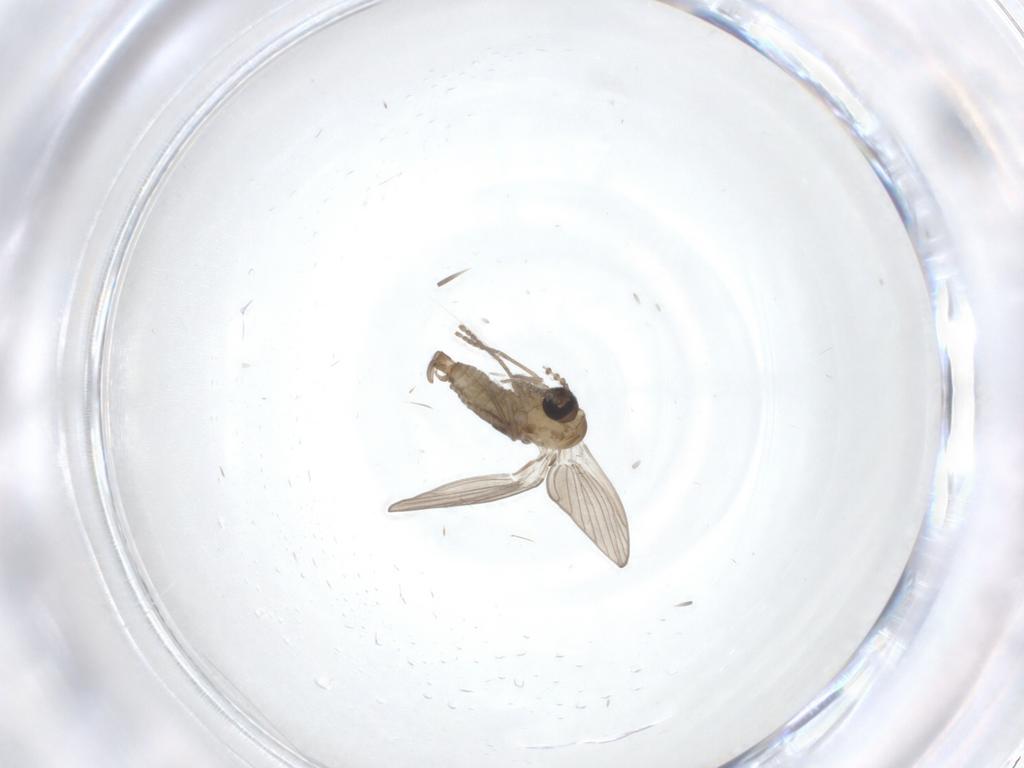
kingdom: Animalia
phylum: Arthropoda
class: Insecta
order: Diptera
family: Psychodidae
